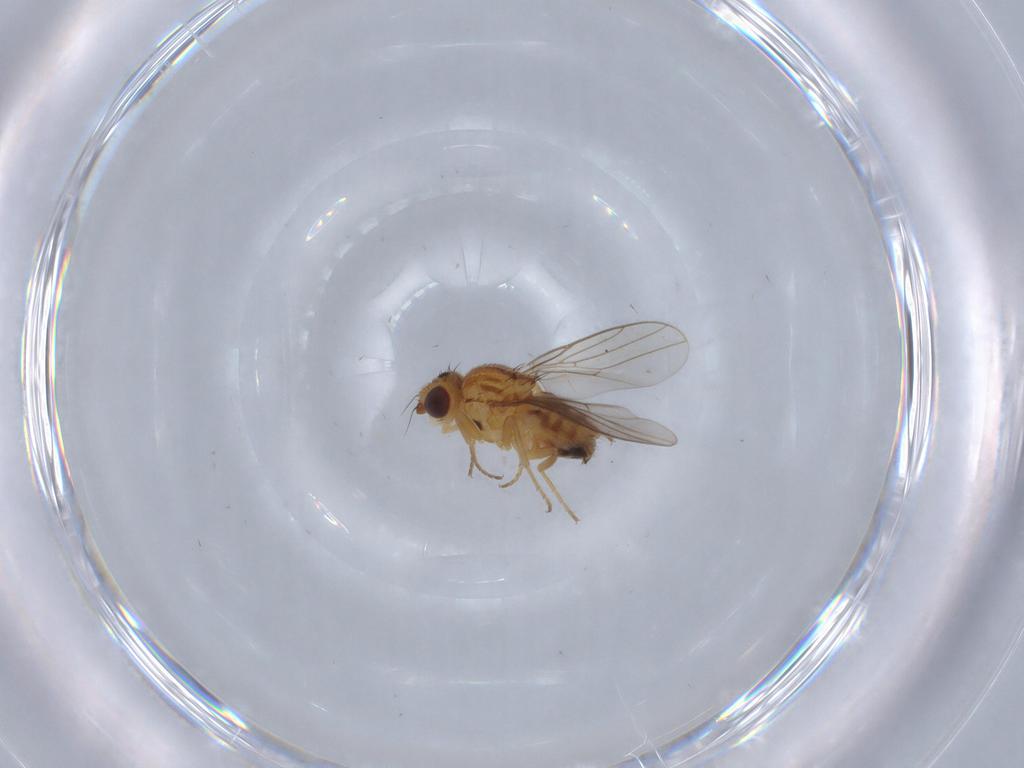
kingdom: Animalia
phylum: Arthropoda
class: Insecta
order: Diptera
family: Chloropidae
